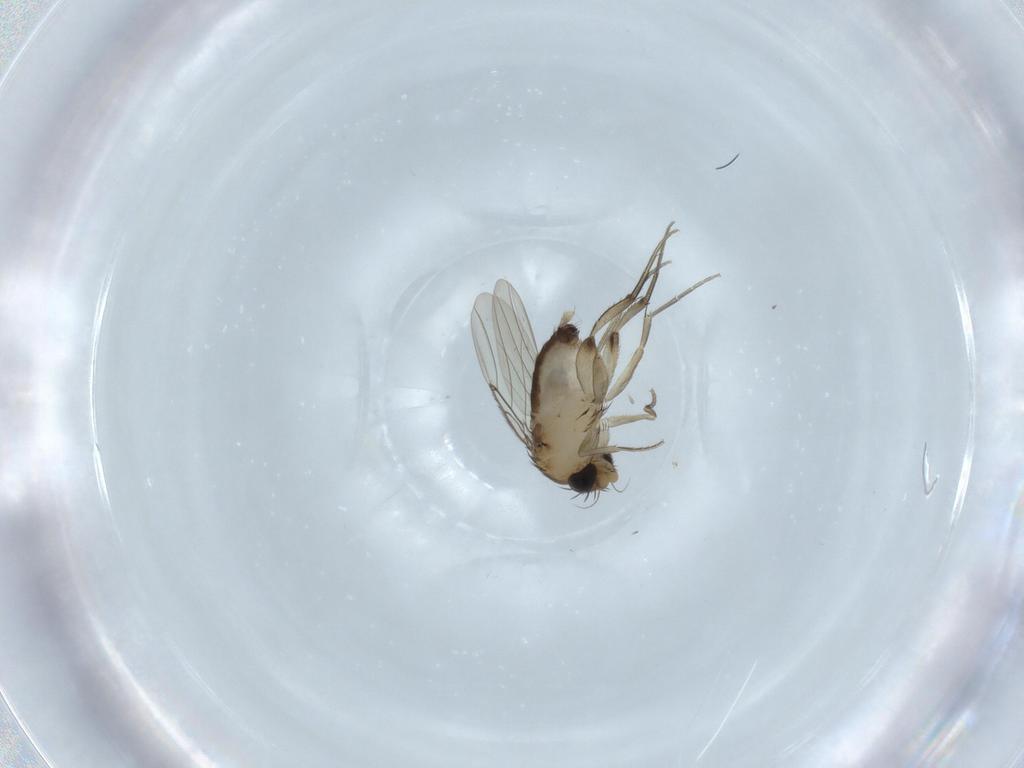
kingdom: Animalia
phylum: Arthropoda
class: Insecta
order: Diptera
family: Phoridae
